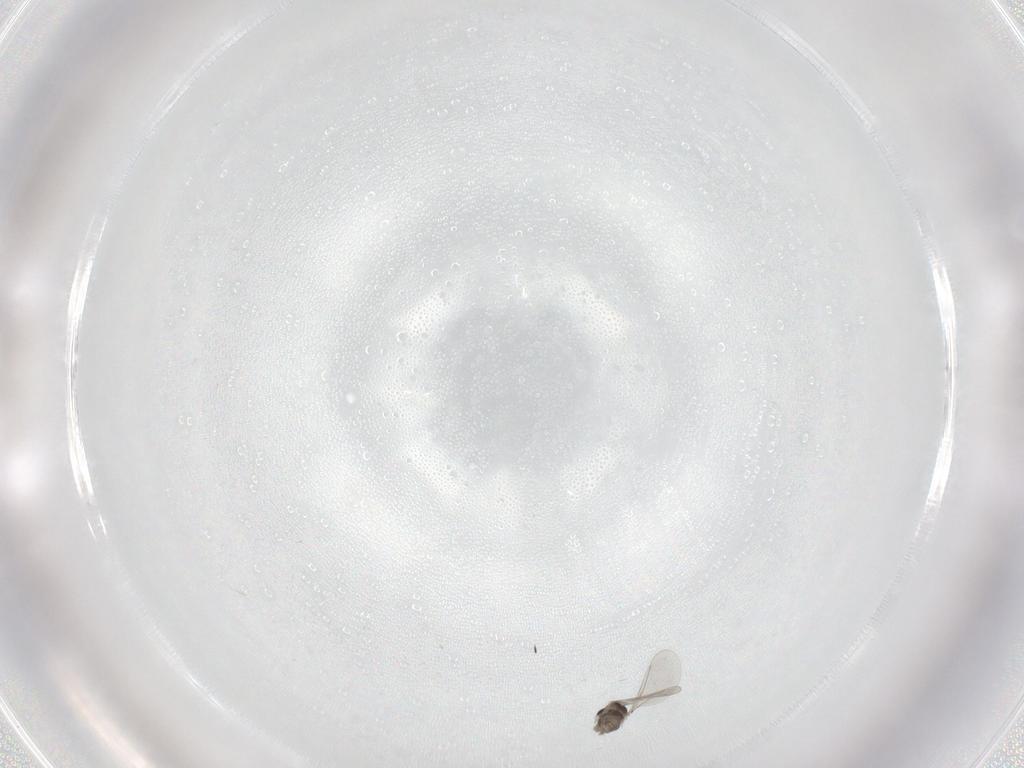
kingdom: Animalia
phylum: Arthropoda
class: Insecta
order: Diptera
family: Cecidomyiidae
